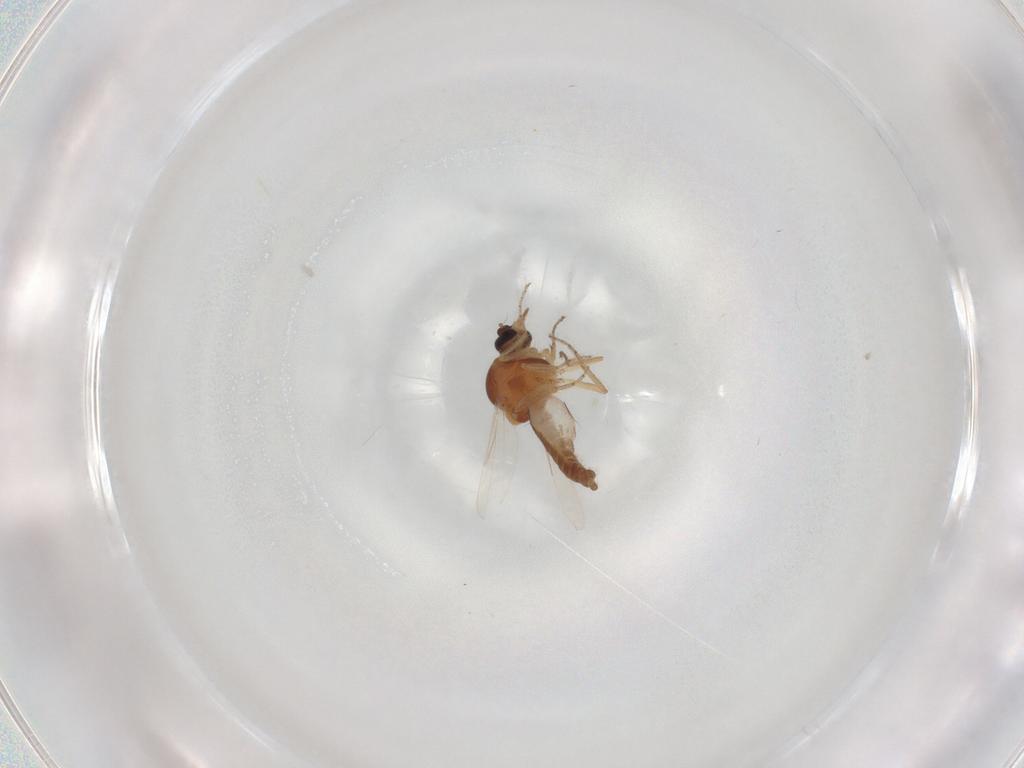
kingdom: Animalia
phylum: Arthropoda
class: Insecta
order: Diptera
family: Ceratopogonidae
